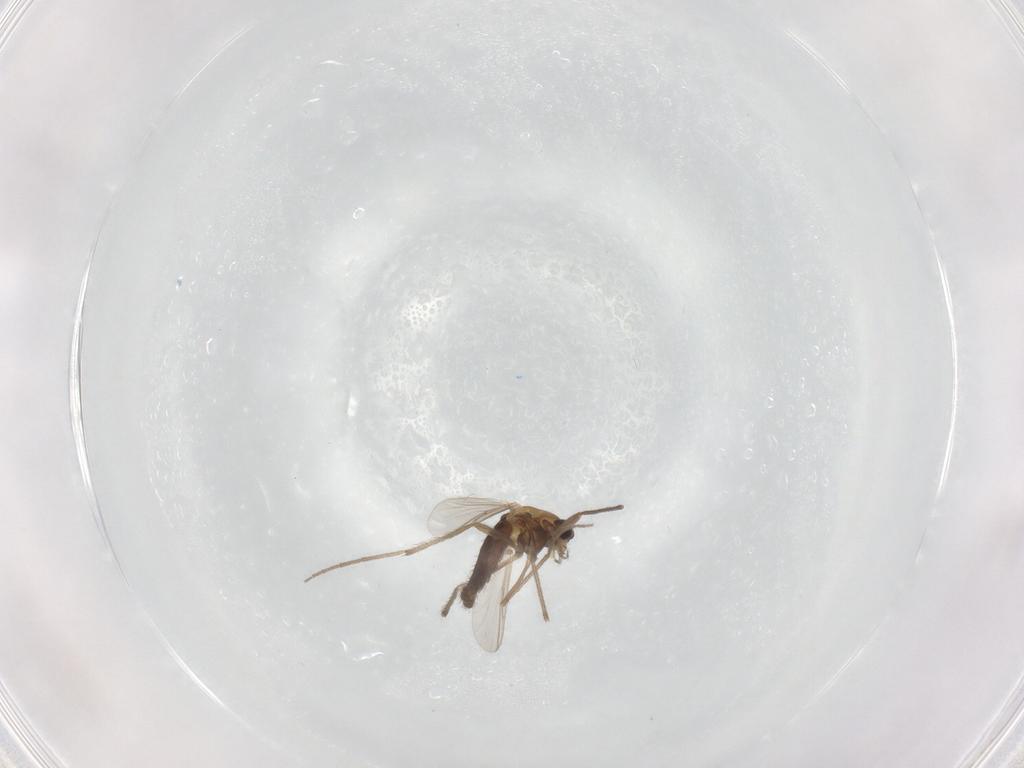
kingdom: Animalia
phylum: Arthropoda
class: Insecta
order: Diptera
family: Chironomidae
